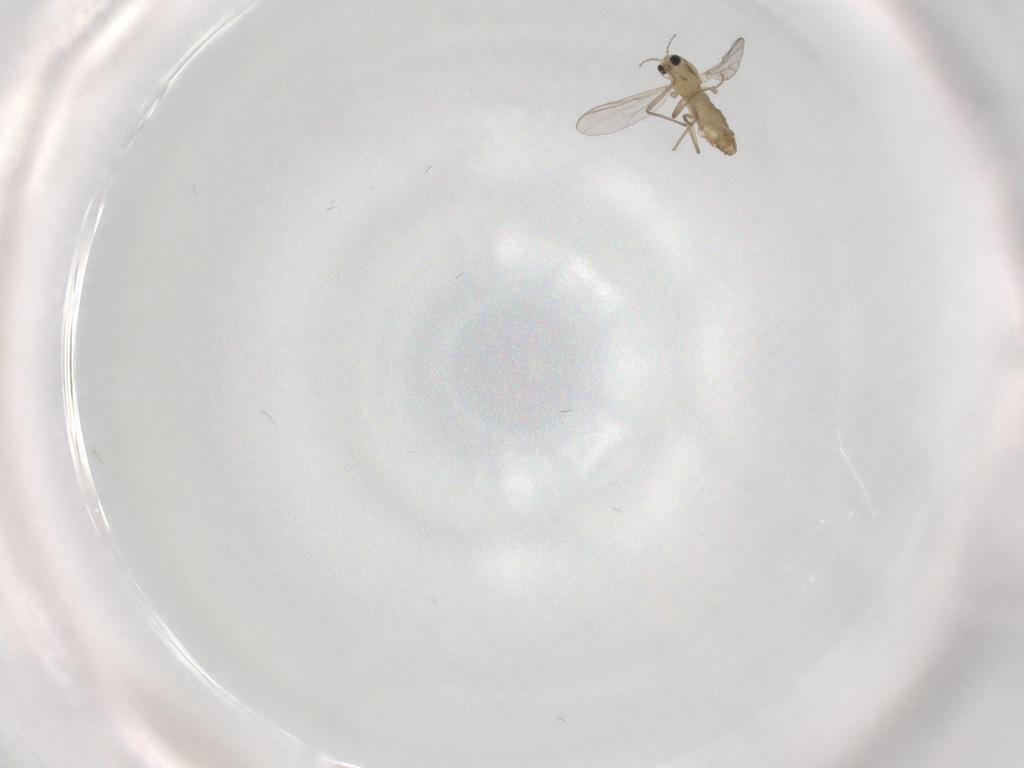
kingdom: Animalia
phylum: Arthropoda
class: Insecta
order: Diptera
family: Chironomidae
